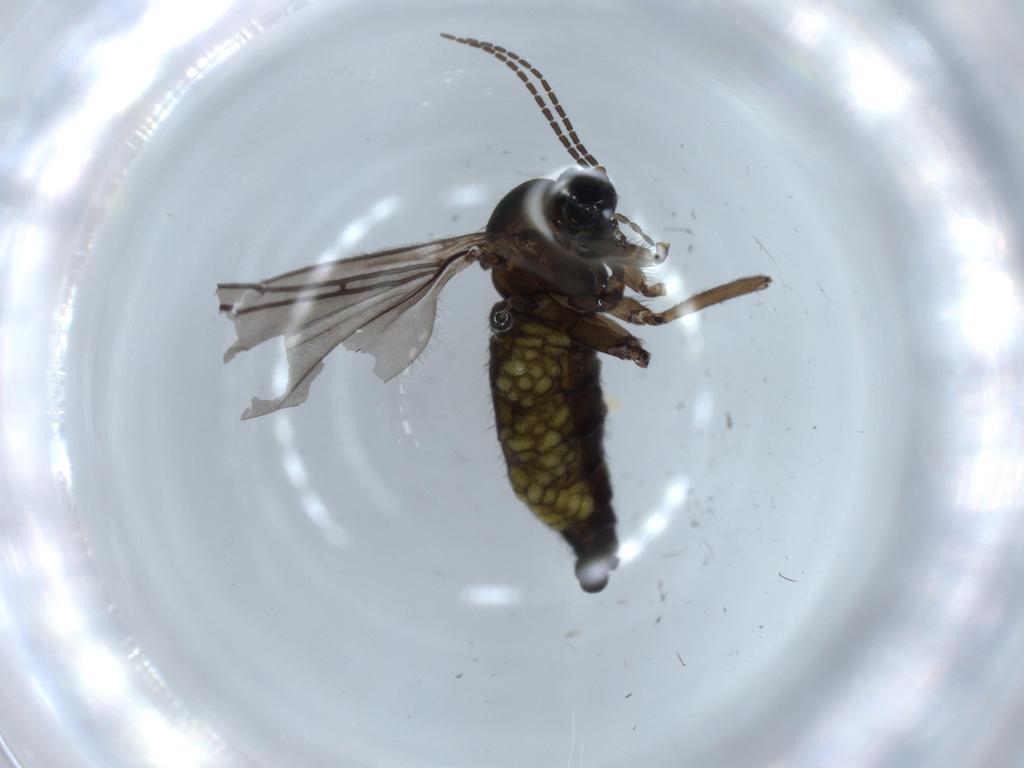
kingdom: Animalia
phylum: Arthropoda
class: Insecta
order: Diptera
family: Sciaridae
